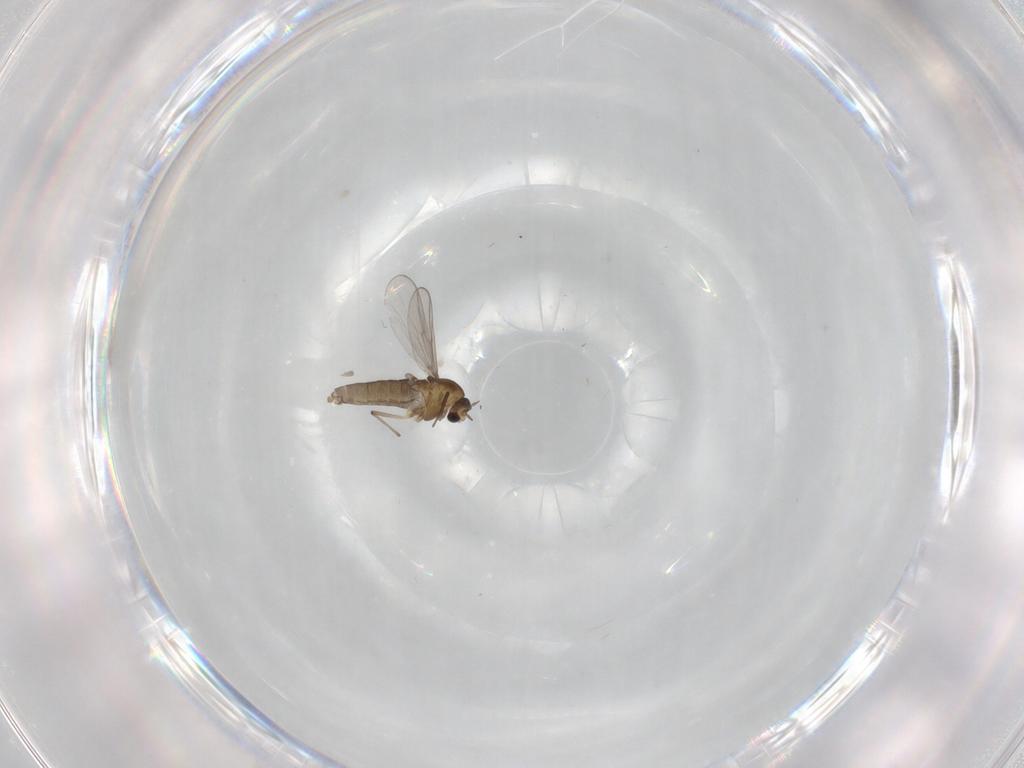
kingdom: Animalia
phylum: Arthropoda
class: Insecta
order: Diptera
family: Chironomidae
